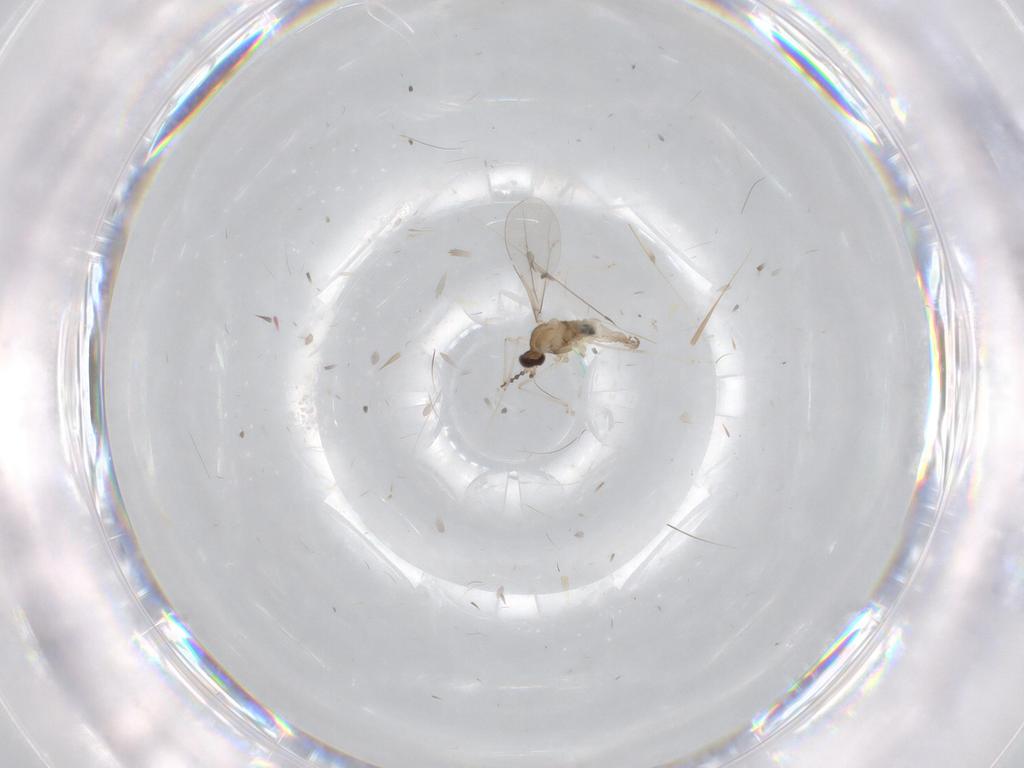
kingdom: Animalia
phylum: Arthropoda
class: Insecta
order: Diptera
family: Cecidomyiidae
